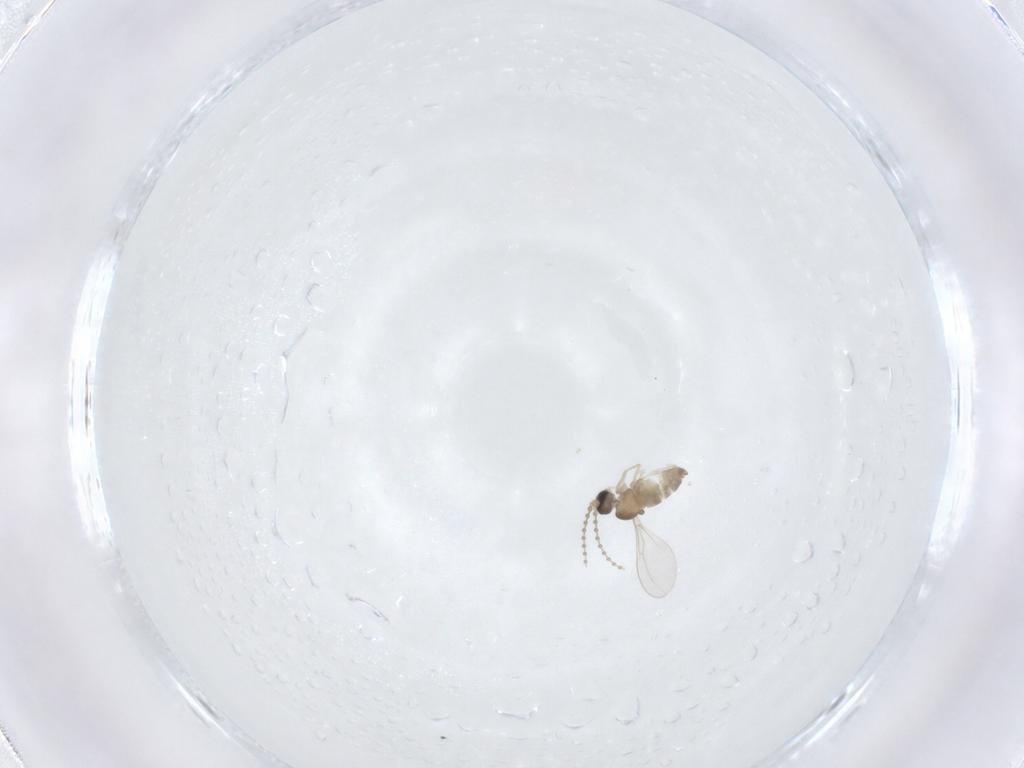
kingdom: Animalia
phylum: Arthropoda
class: Insecta
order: Diptera
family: Cecidomyiidae
